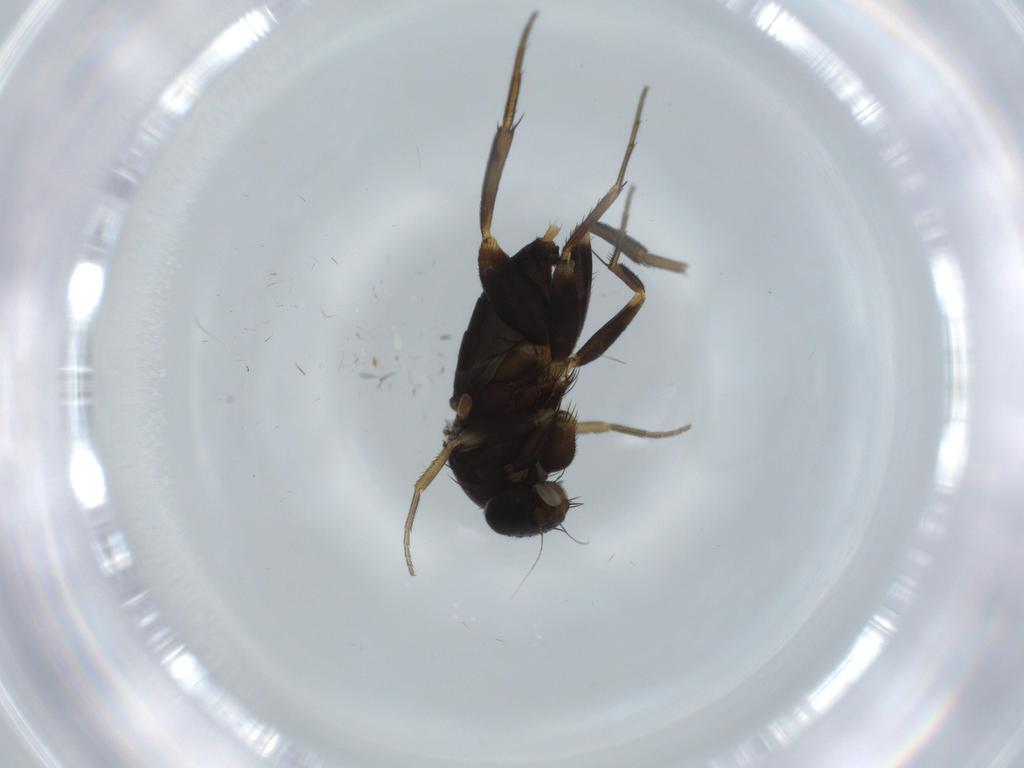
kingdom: Animalia
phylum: Arthropoda
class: Insecta
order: Diptera
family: Phoridae
